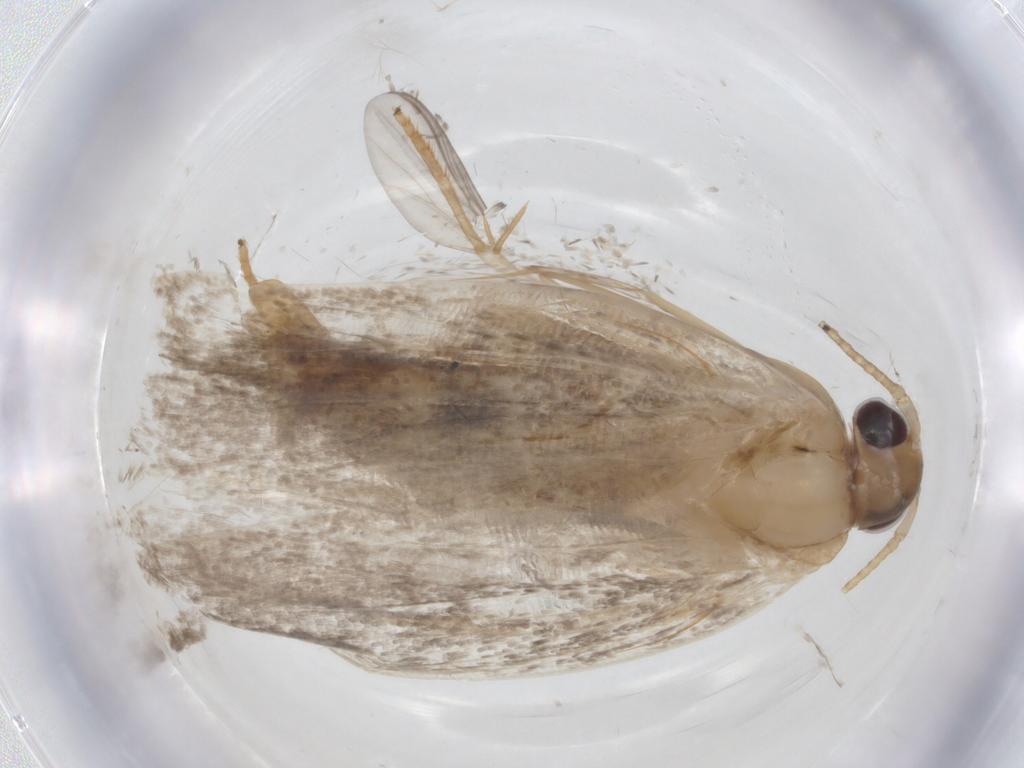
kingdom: Animalia
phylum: Arthropoda
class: Insecta
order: Lepidoptera
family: Depressariidae
